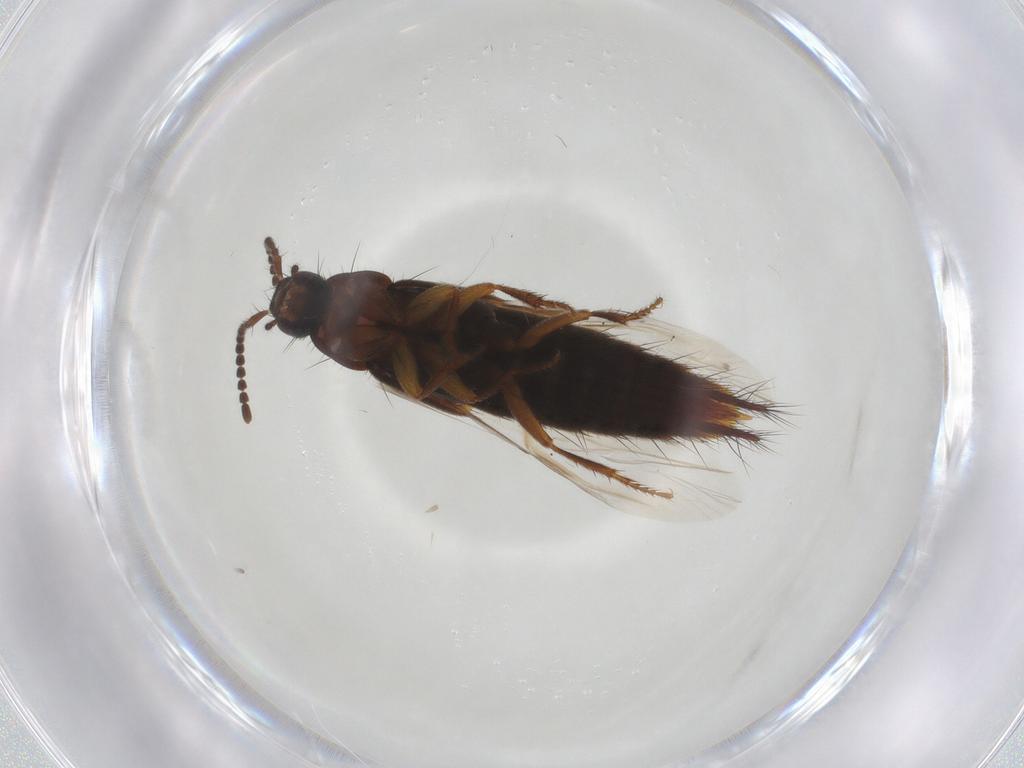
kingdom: Animalia
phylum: Arthropoda
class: Insecta
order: Coleoptera
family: Staphylinidae
